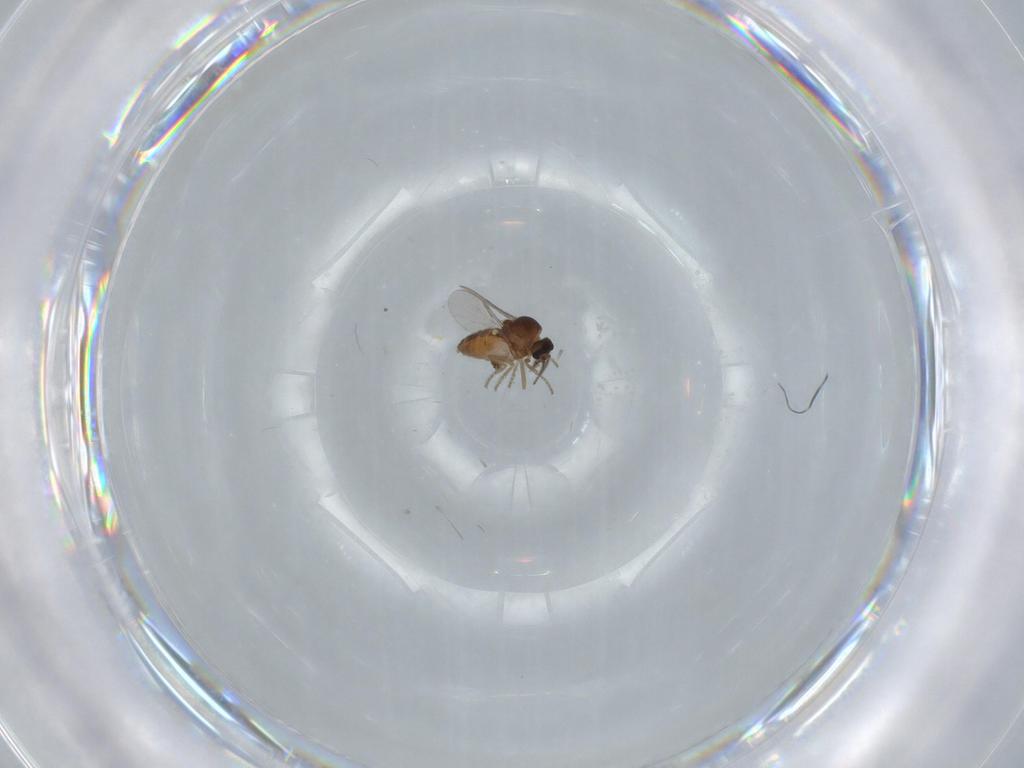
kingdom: Animalia
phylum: Arthropoda
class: Insecta
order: Diptera
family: Ceratopogonidae
